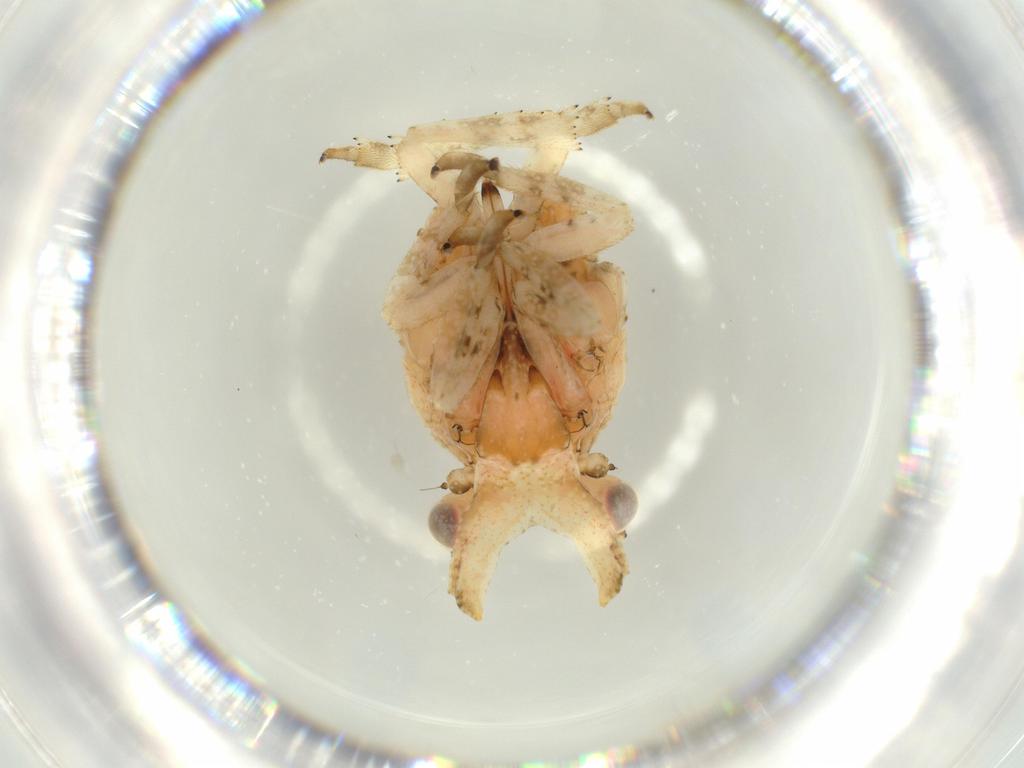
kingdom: Animalia
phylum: Arthropoda
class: Insecta
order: Hemiptera
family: Fulgoridae
